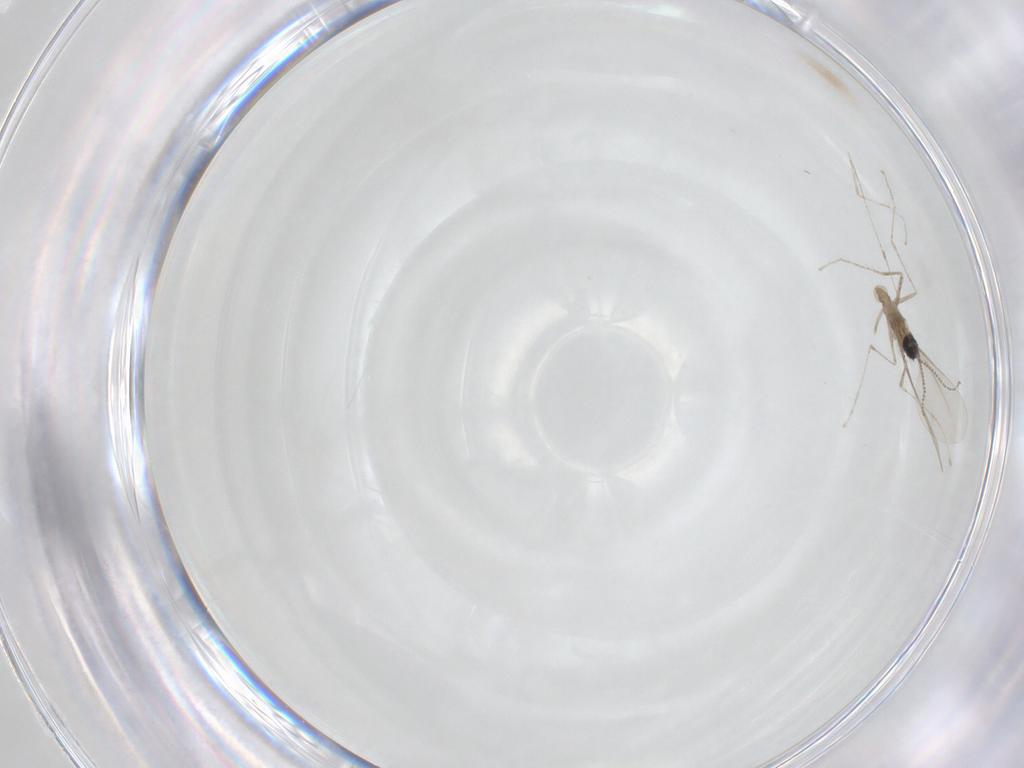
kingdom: Animalia
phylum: Arthropoda
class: Insecta
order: Diptera
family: Cecidomyiidae
